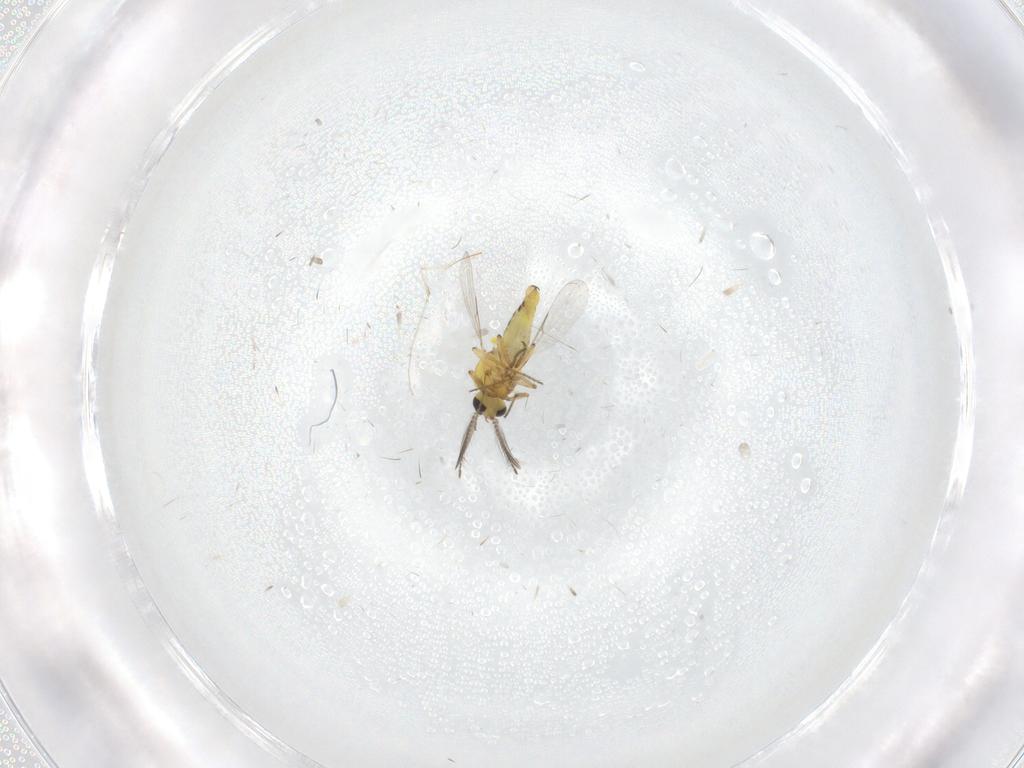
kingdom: Animalia
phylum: Arthropoda
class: Insecta
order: Diptera
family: Ceratopogonidae
